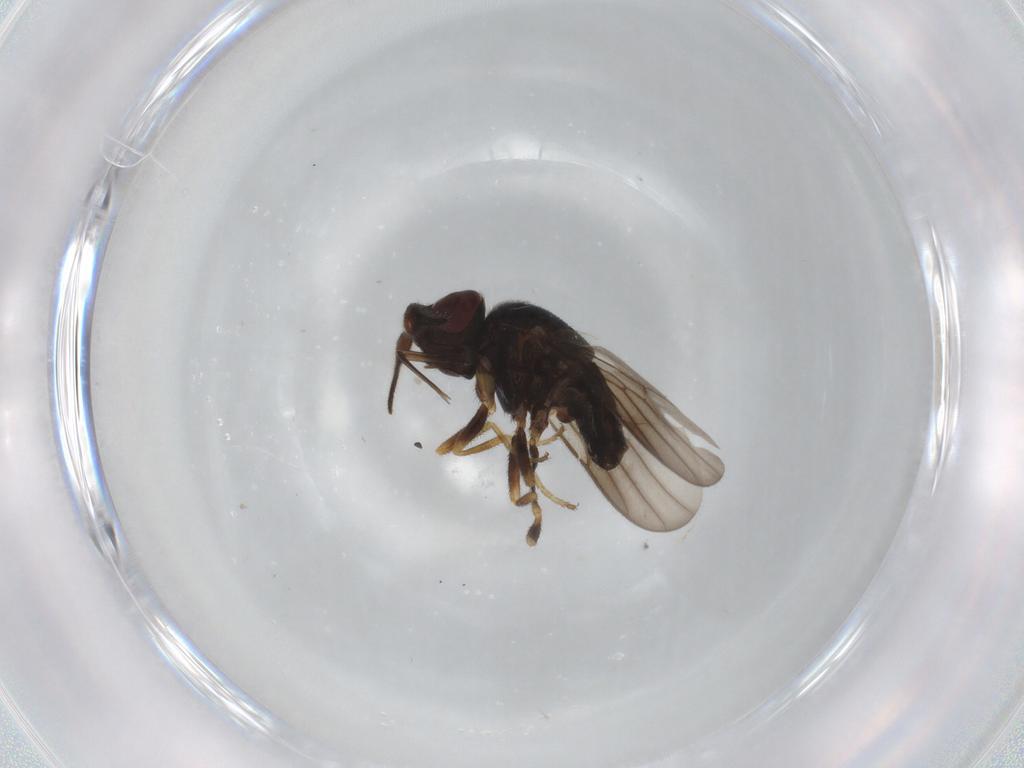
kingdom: Animalia
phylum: Arthropoda
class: Insecta
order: Diptera
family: Chloropidae
